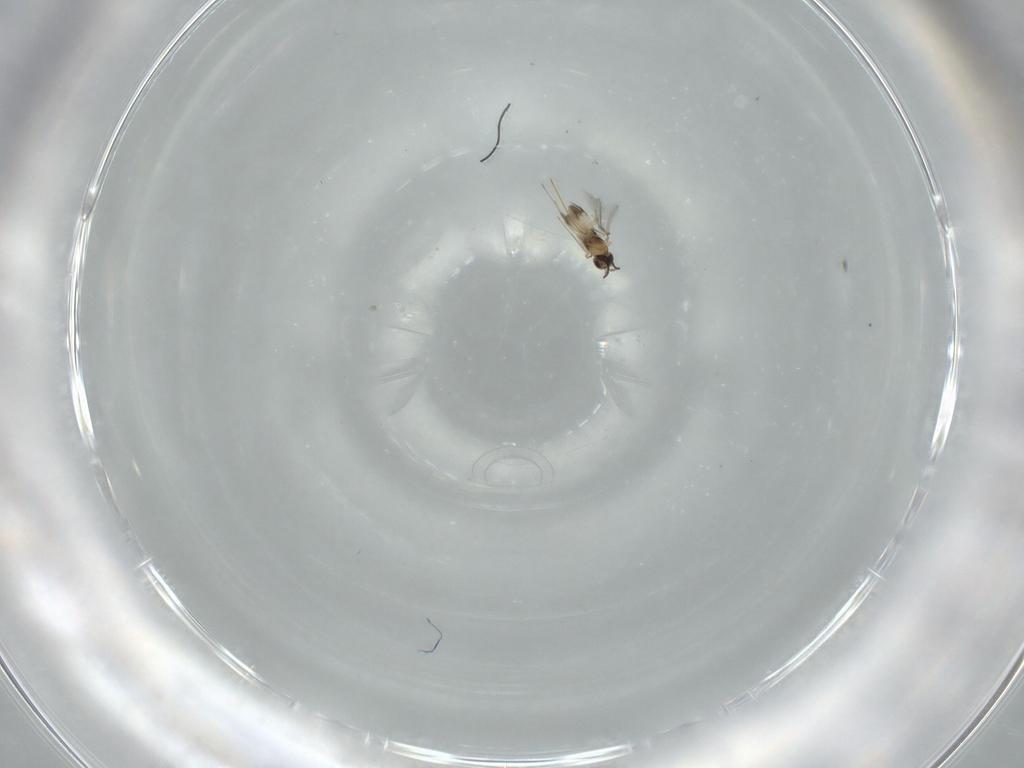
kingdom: Animalia
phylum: Arthropoda
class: Insecta
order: Hymenoptera
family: Mymaridae
